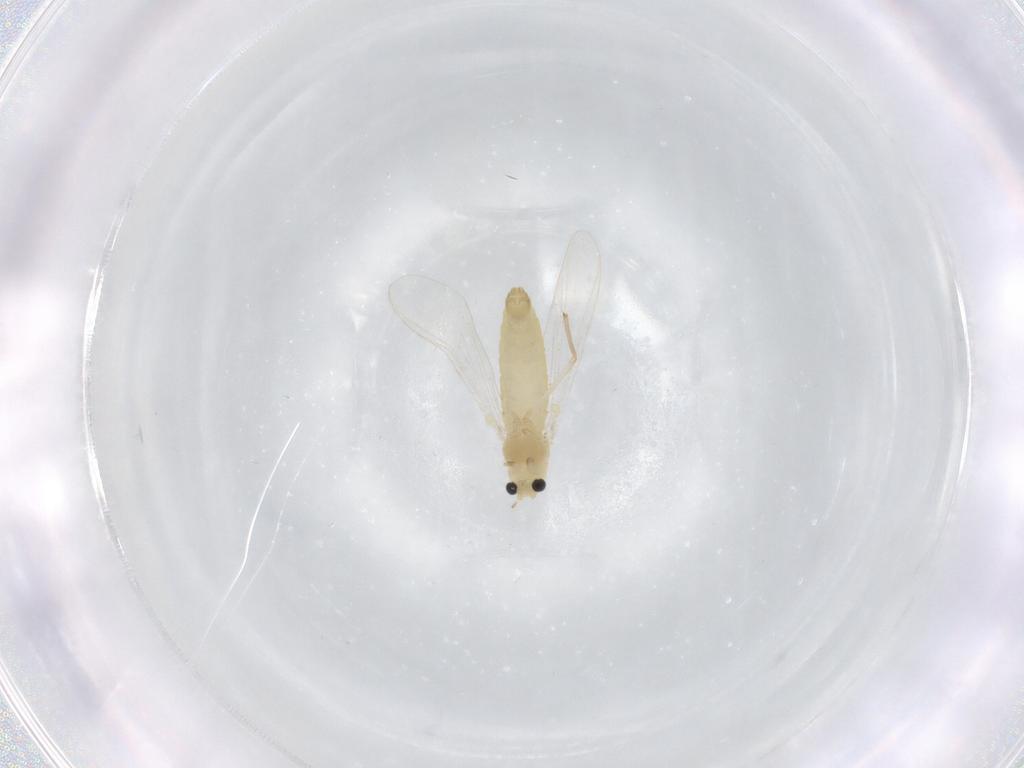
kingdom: Animalia
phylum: Arthropoda
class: Insecta
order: Diptera
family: Chironomidae
